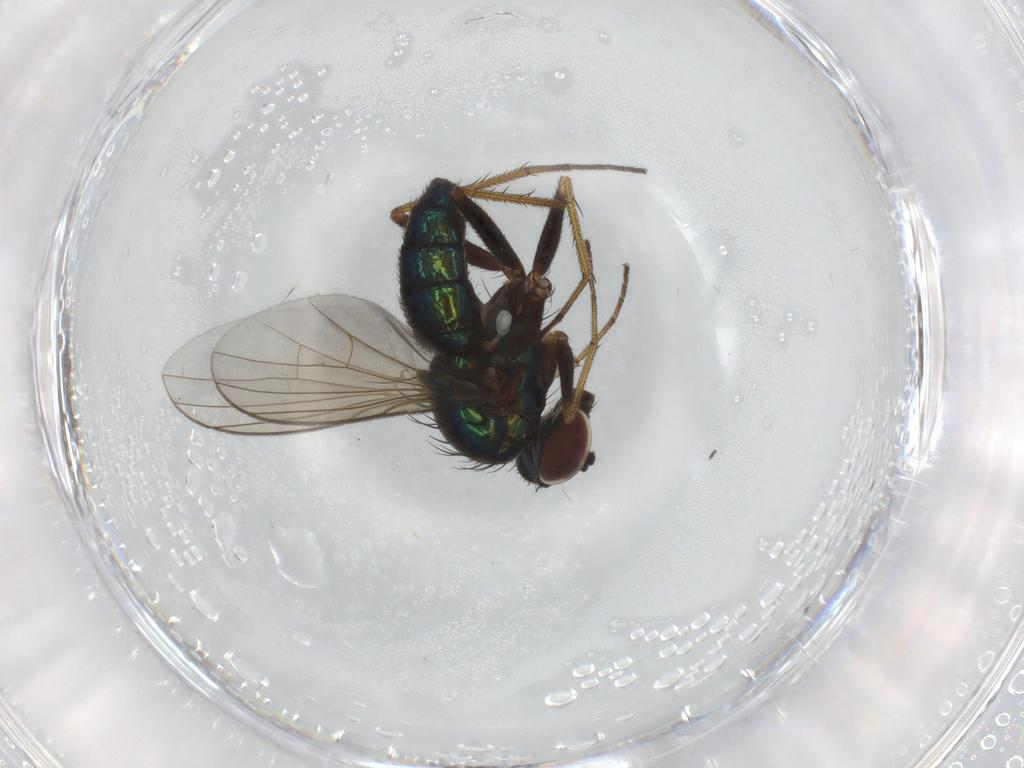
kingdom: Animalia
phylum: Arthropoda
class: Insecta
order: Diptera
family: Dolichopodidae
